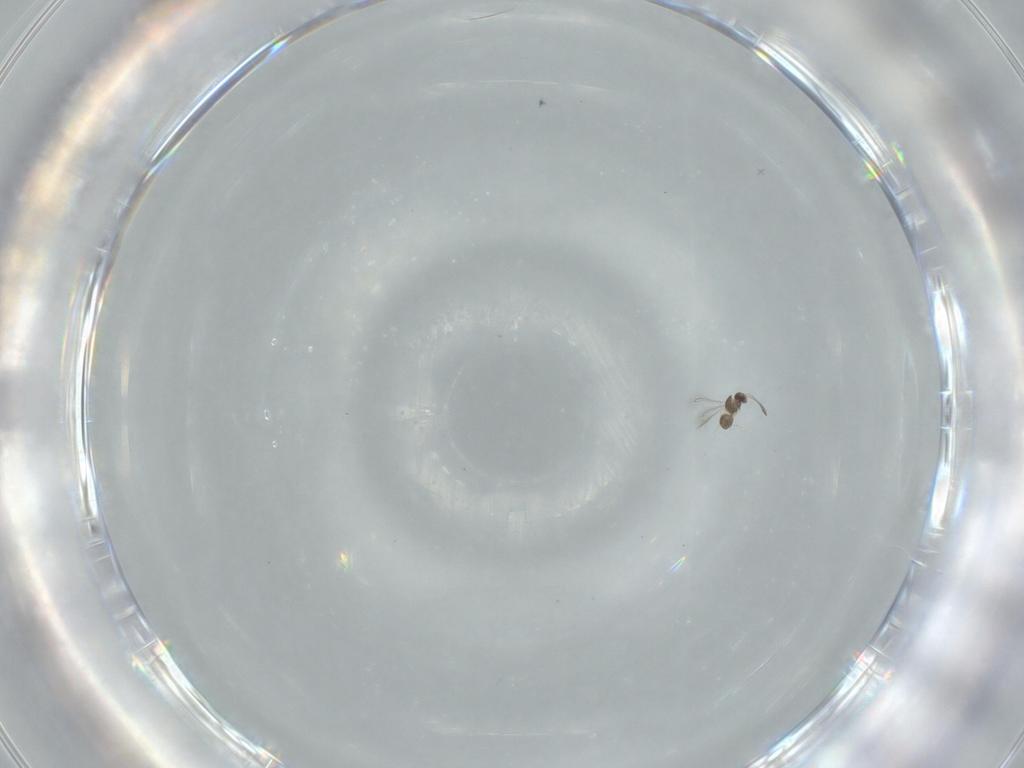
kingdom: Animalia
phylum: Arthropoda
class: Insecta
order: Hymenoptera
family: Scelionidae
